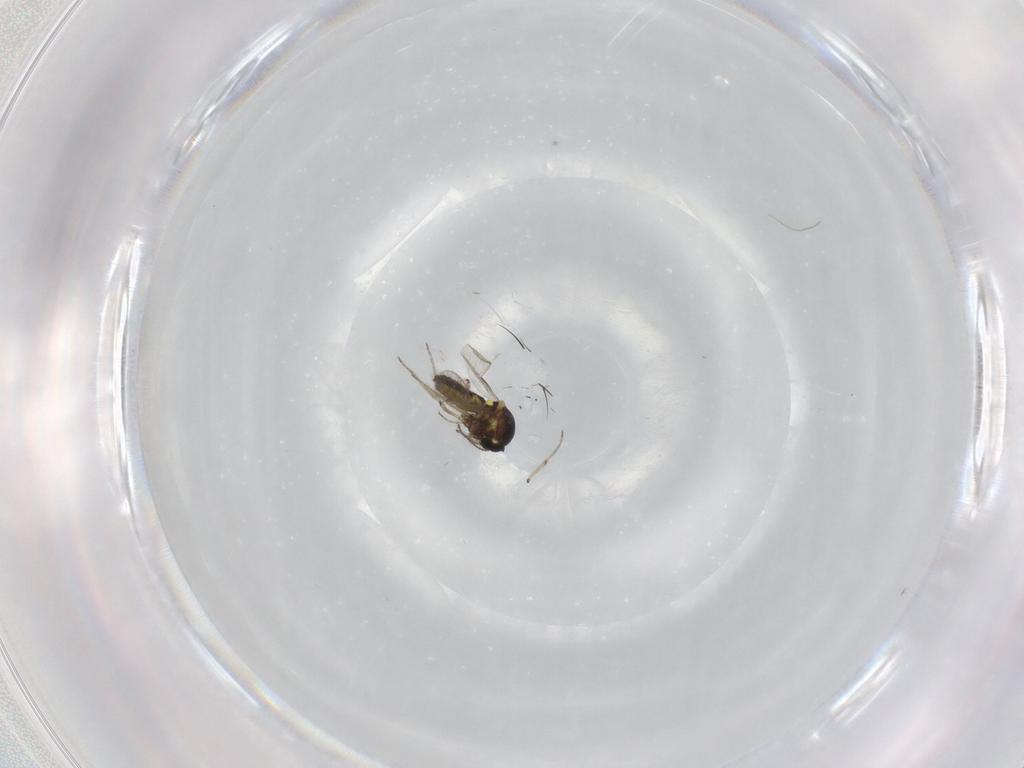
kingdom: Animalia
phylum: Arthropoda
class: Insecta
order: Diptera
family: Ceratopogonidae
